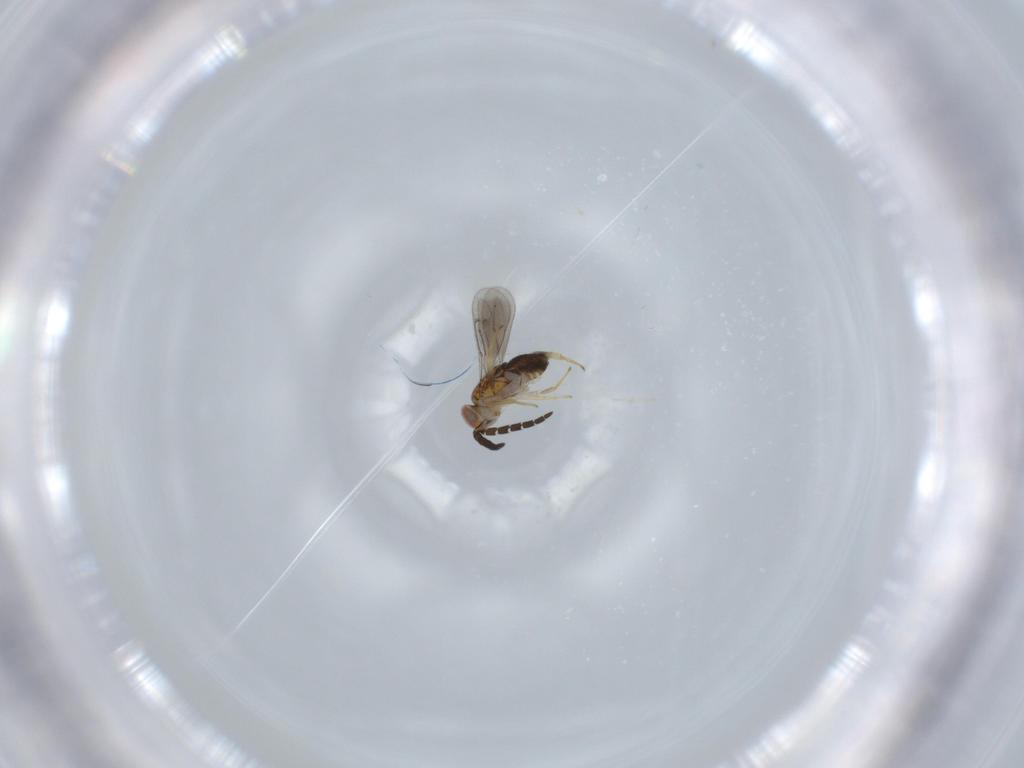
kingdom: Animalia
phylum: Arthropoda
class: Insecta
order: Hymenoptera
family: Aphelinidae
